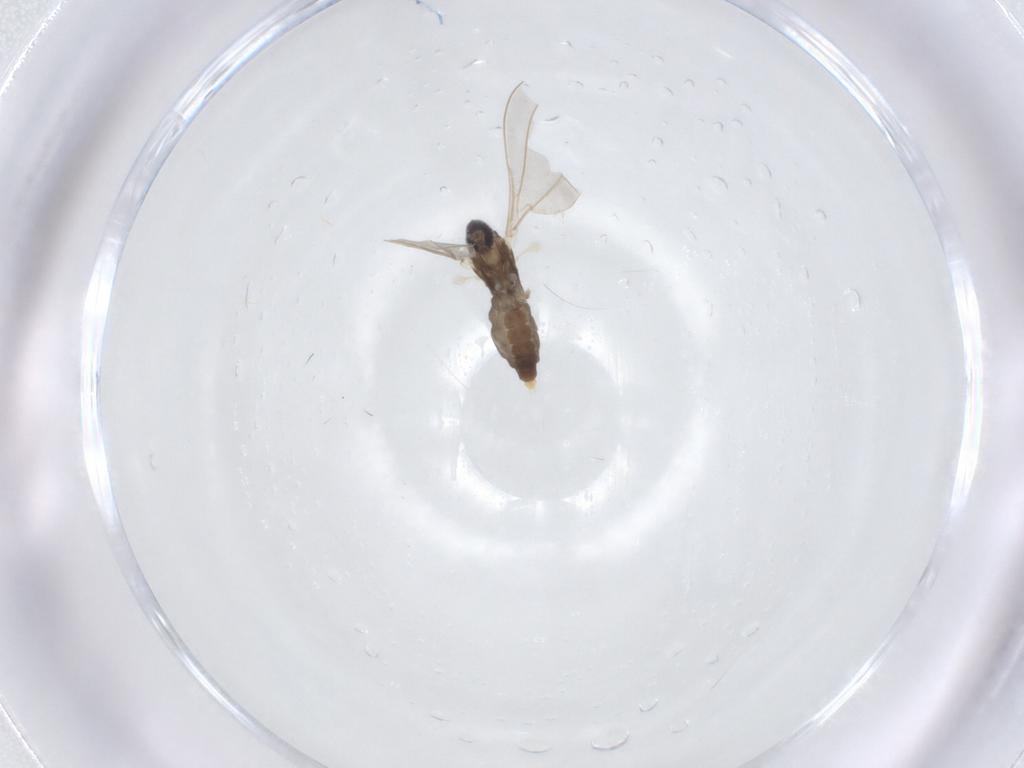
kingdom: Animalia
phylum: Arthropoda
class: Insecta
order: Diptera
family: Cecidomyiidae
